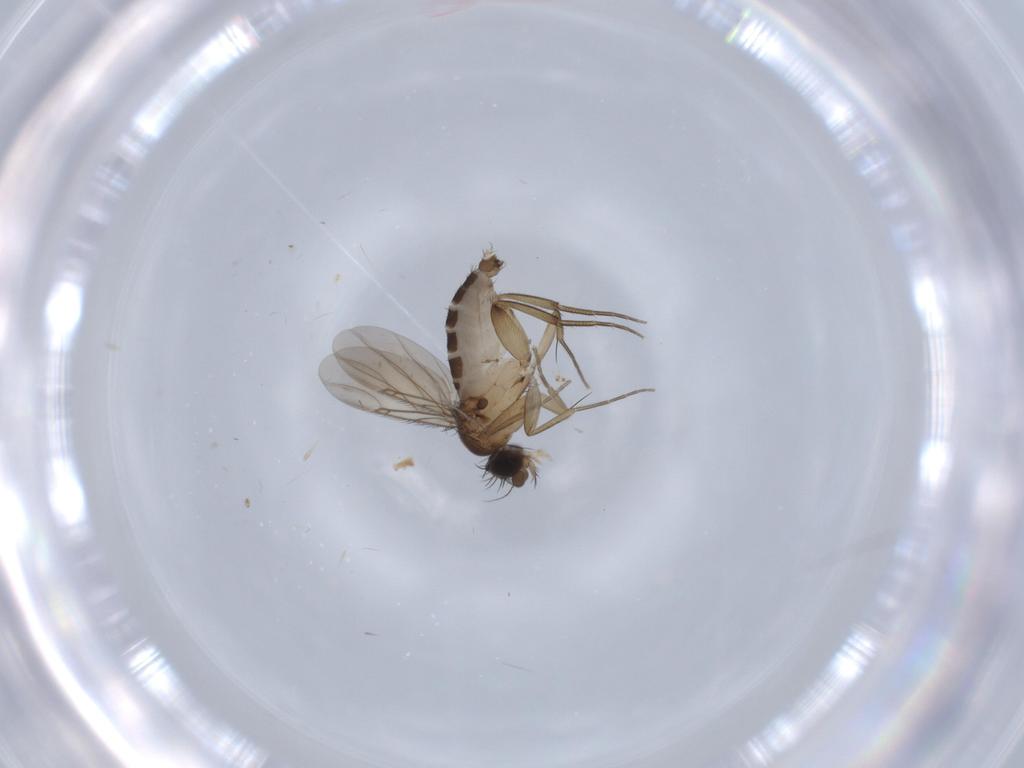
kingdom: Animalia
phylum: Arthropoda
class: Insecta
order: Diptera
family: Phoridae
